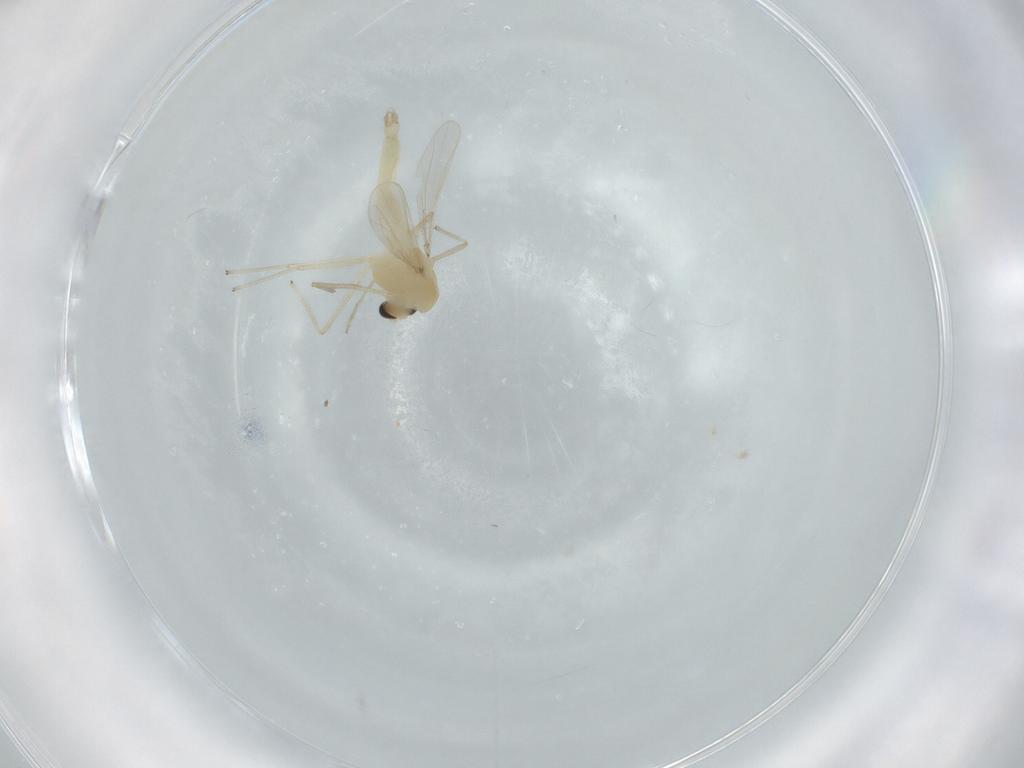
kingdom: Animalia
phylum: Arthropoda
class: Insecta
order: Diptera
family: Chironomidae
